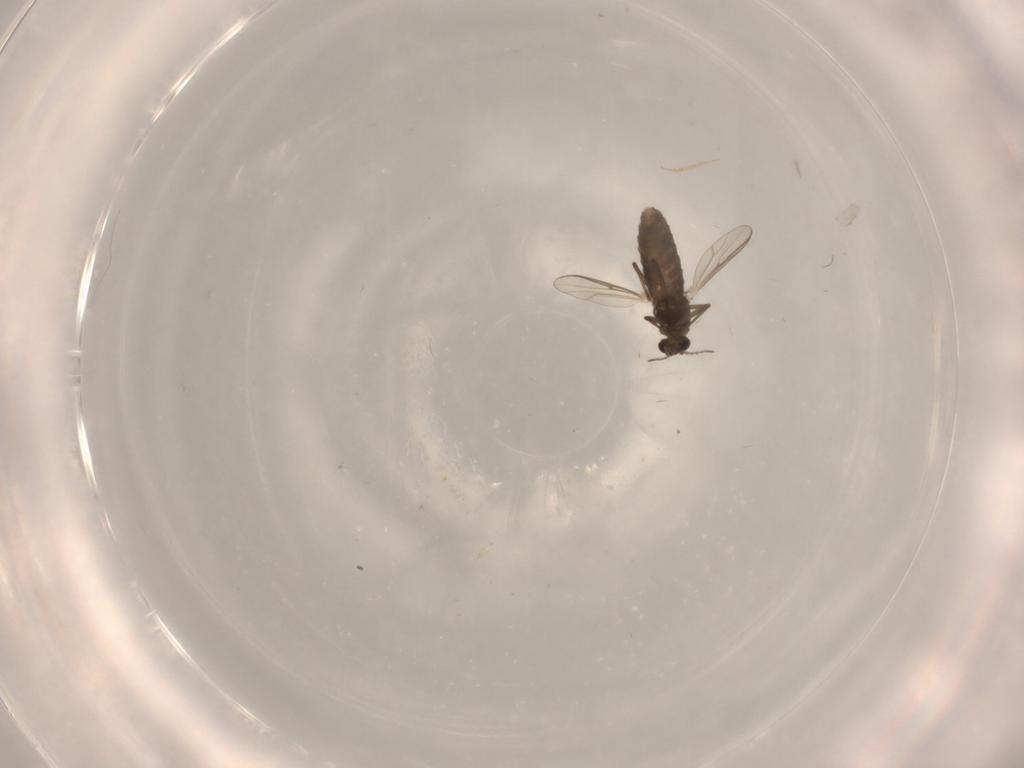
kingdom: Animalia
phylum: Arthropoda
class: Insecta
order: Diptera
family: Chironomidae
